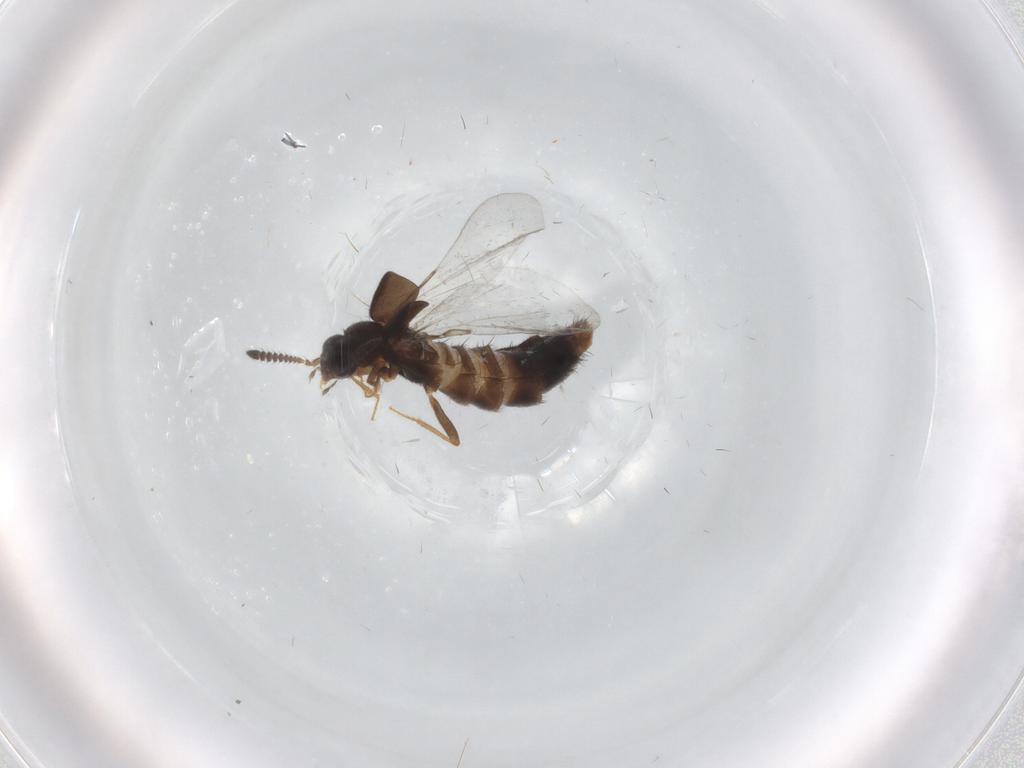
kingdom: Animalia
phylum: Arthropoda
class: Insecta
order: Coleoptera
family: Staphylinidae
